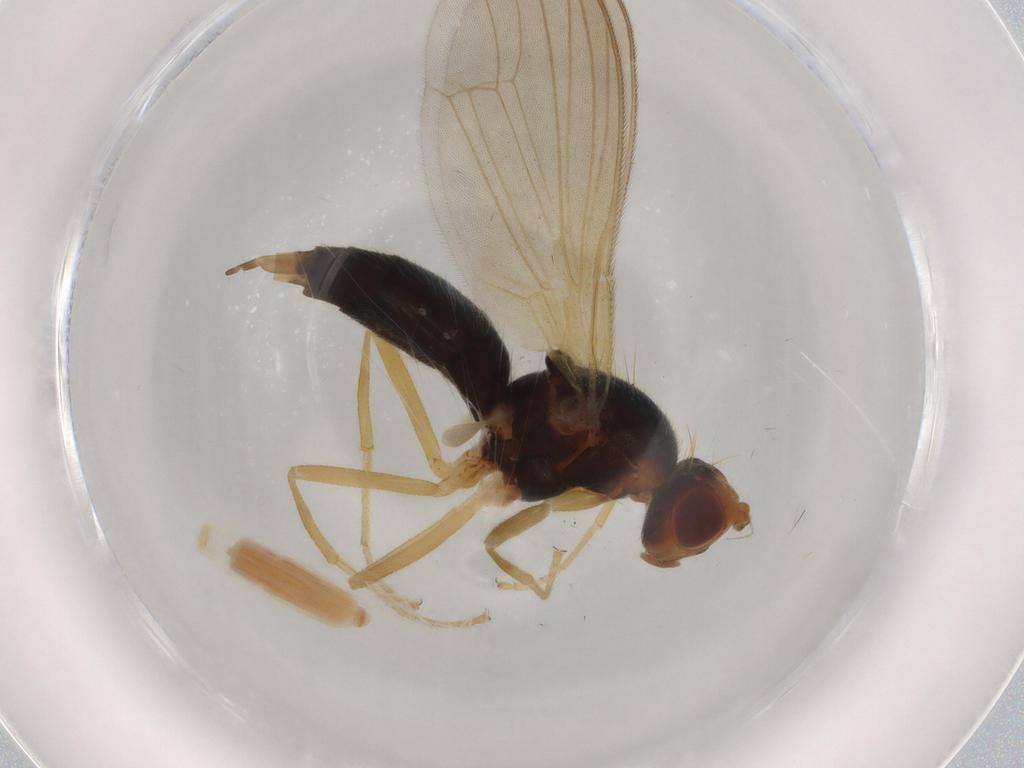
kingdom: Animalia
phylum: Arthropoda
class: Insecta
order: Diptera
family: Psilidae
